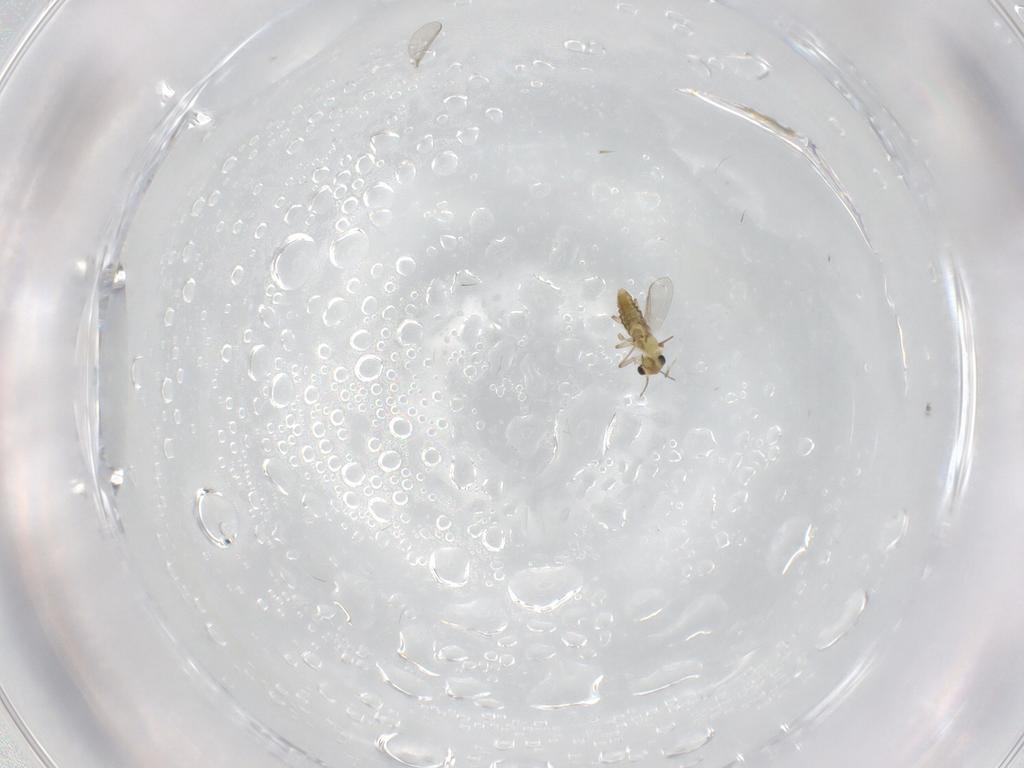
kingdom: Animalia
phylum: Arthropoda
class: Insecta
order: Diptera
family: Chironomidae
